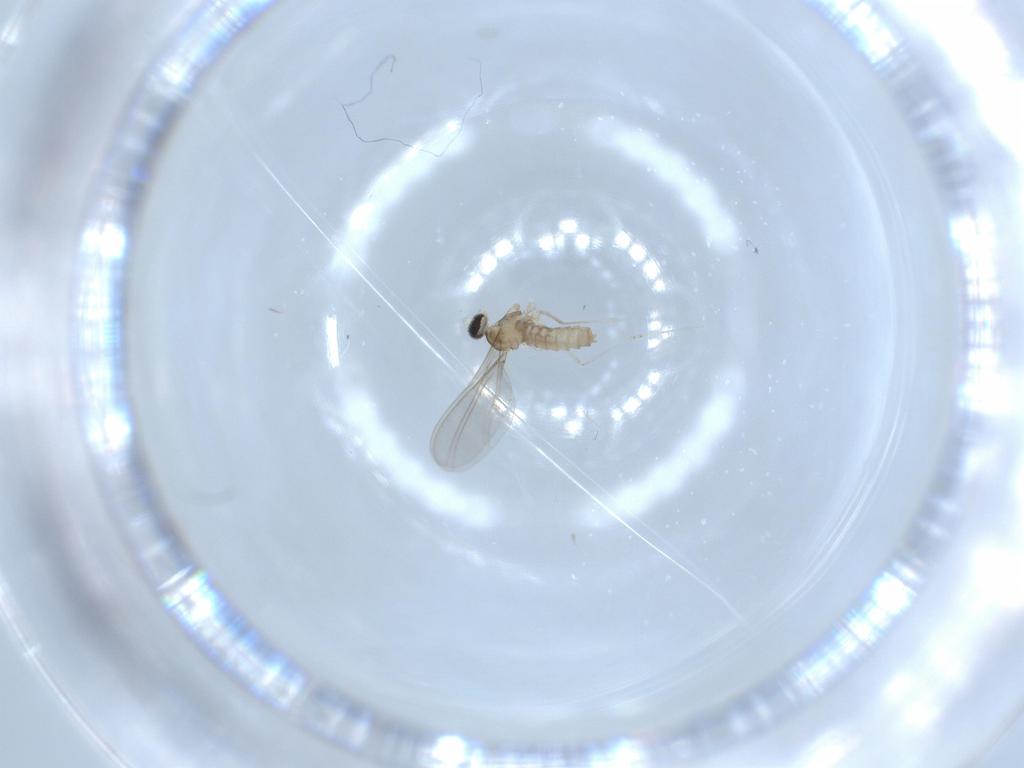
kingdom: Animalia
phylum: Arthropoda
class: Insecta
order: Diptera
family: Cecidomyiidae
